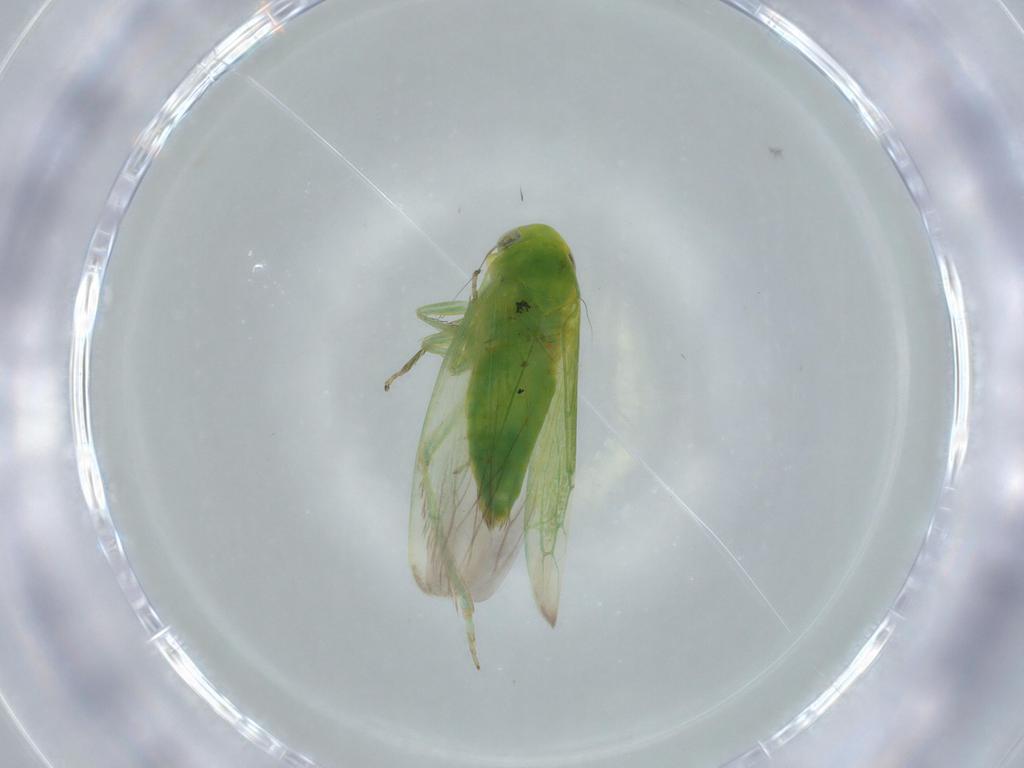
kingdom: Animalia
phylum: Arthropoda
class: Insecta
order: Hemiptera
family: Cicadellidae
